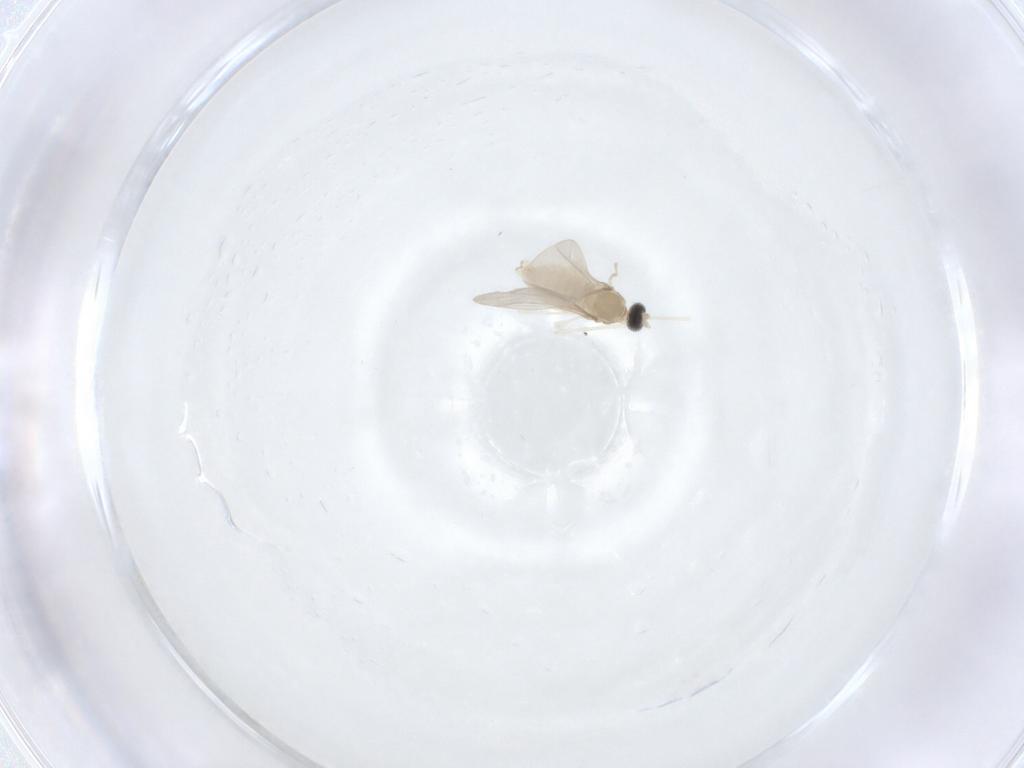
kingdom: Animalia
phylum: Arthropoda
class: Insecta
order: Diptera
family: Cecidomyiidae
